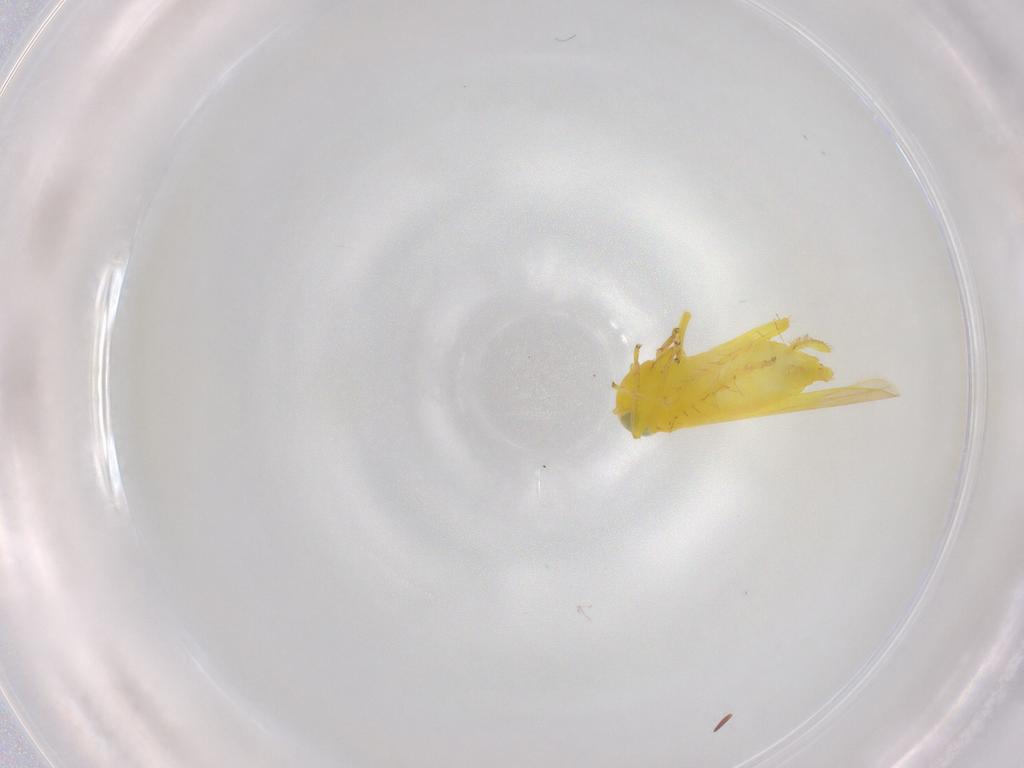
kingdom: Animalia
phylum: Arthropoda
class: Insecta
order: Hemiptera
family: Cicadellidae
